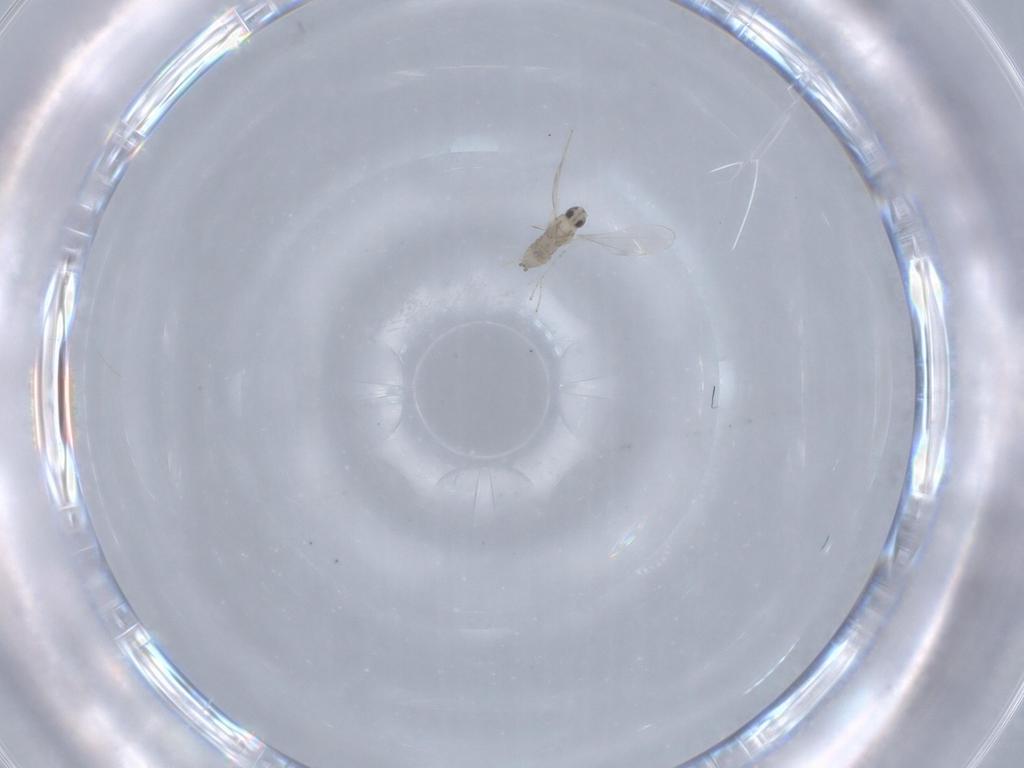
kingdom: Animalia
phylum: Arthropoda
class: Insecta
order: Diptera
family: Cecidomyiidae
